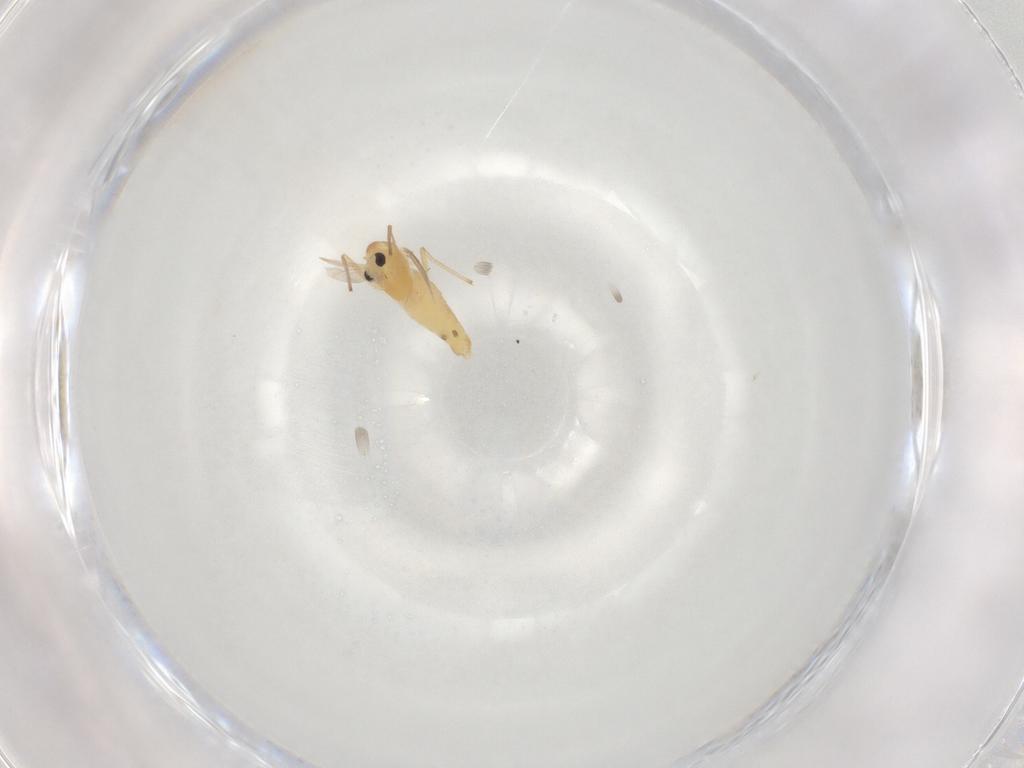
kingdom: Animalia
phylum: Arthropoda
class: Insecta
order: Diptera
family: Chironomidae
